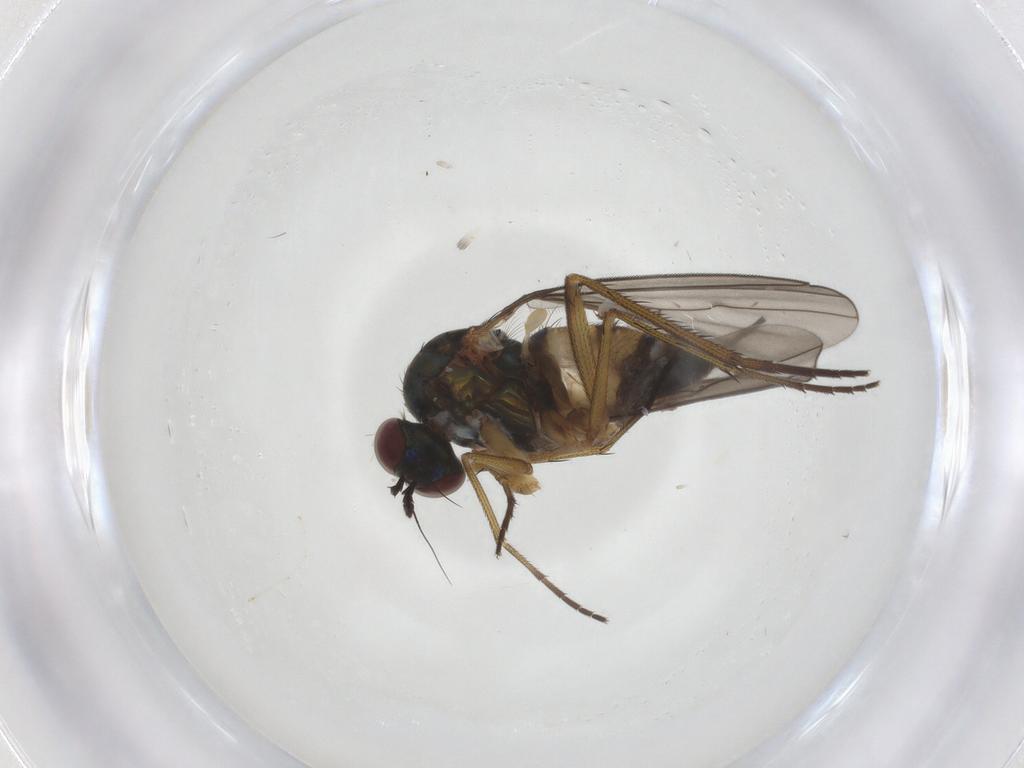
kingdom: Animalia
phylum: Arthropoda
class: Insecta
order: Diptera
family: Dolichopodidae
